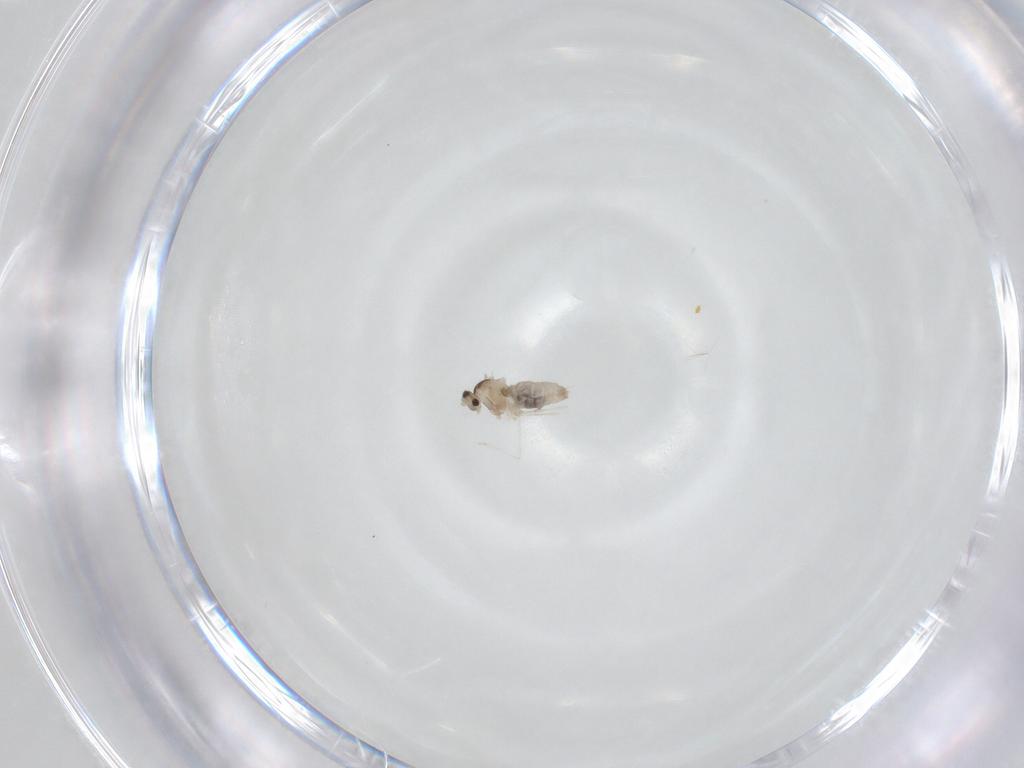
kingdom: Animalia
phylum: Arthropoda
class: Insecta
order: Diptera
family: Cecidomyiidae
